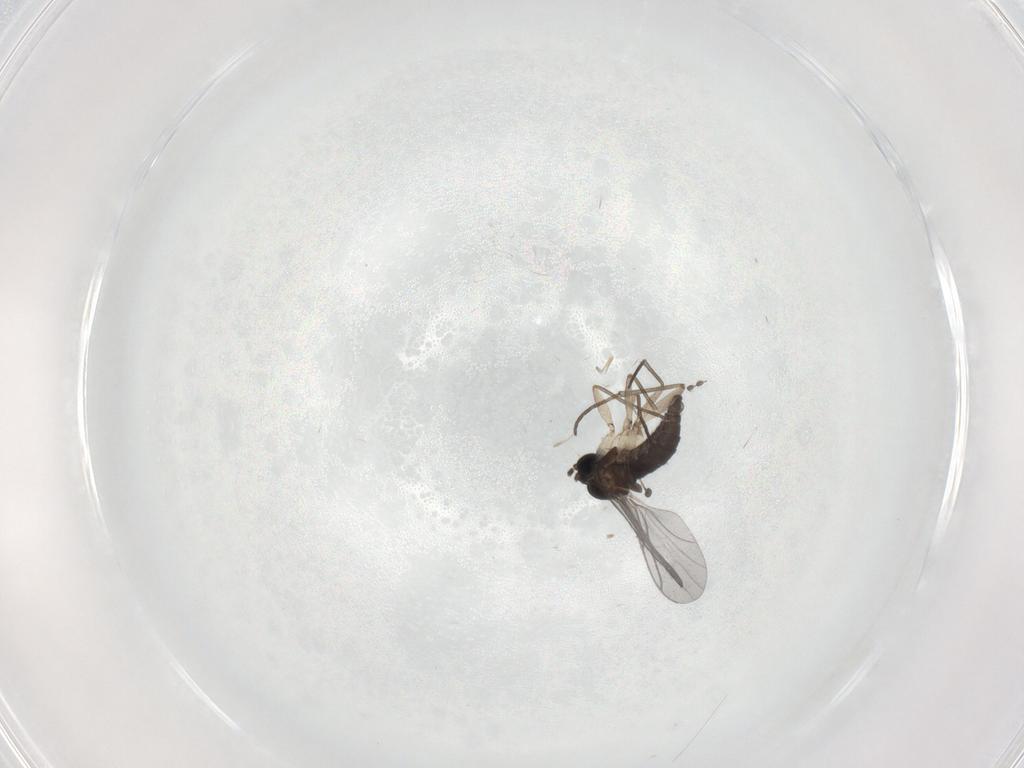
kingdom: Animalia
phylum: Arthropoda
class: Insecta
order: Diptera
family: Sciaridae
